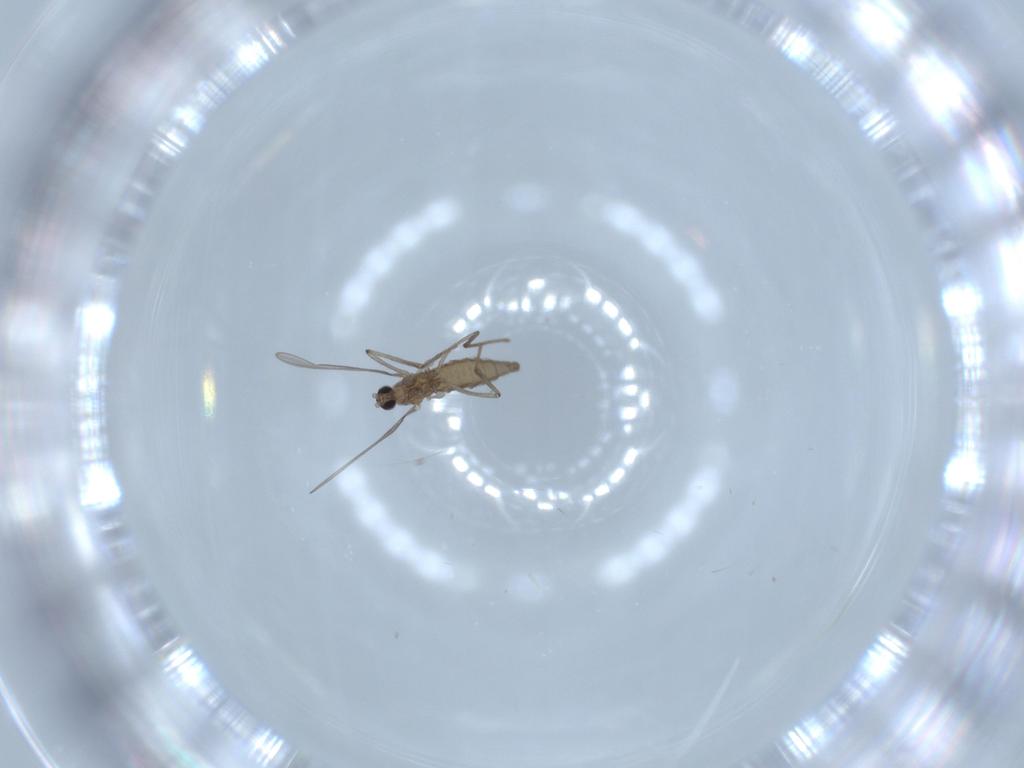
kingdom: Animalia
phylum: Arthropoda
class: Insecta
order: Diptera
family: Cecidomyiidae
